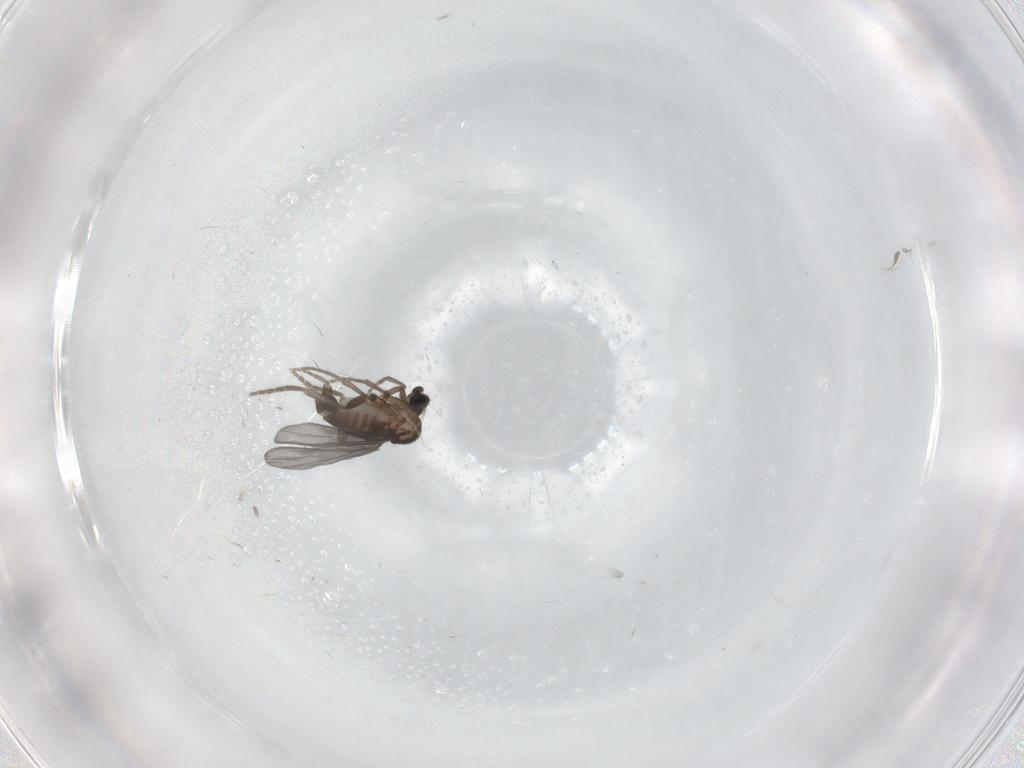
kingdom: Animalia
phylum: Arthropoda
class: Insecta
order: Diptera
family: Phoridae
